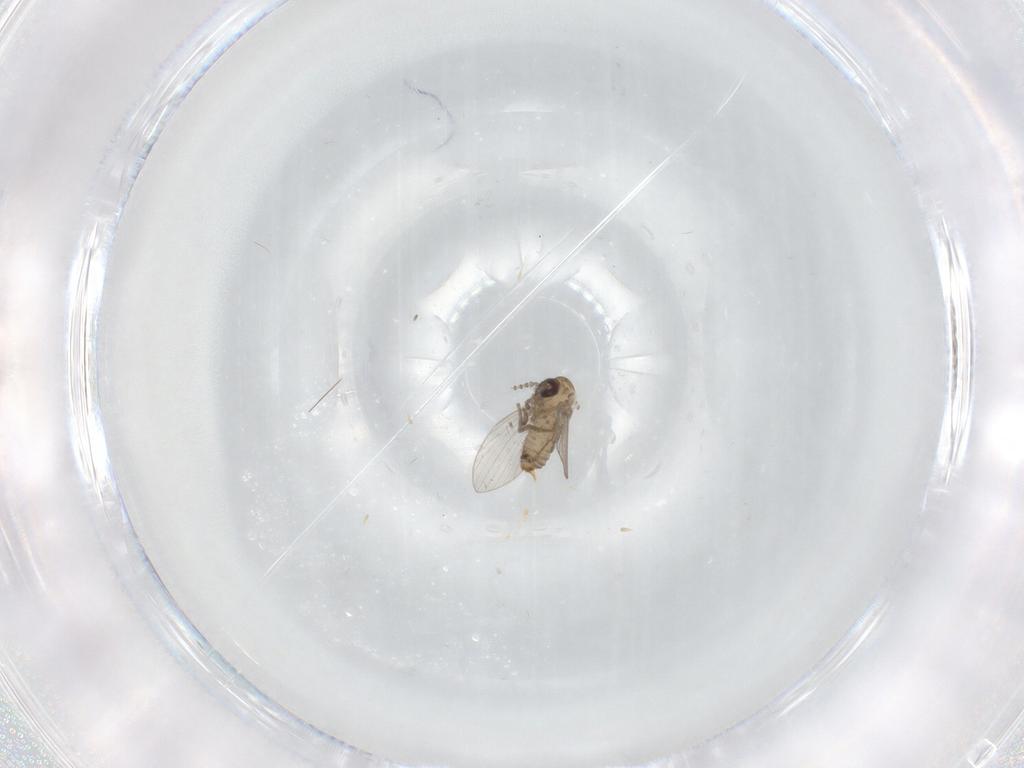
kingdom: Animalia
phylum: Arthropoda
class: Insecta
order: Diptera
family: Psychodidae
